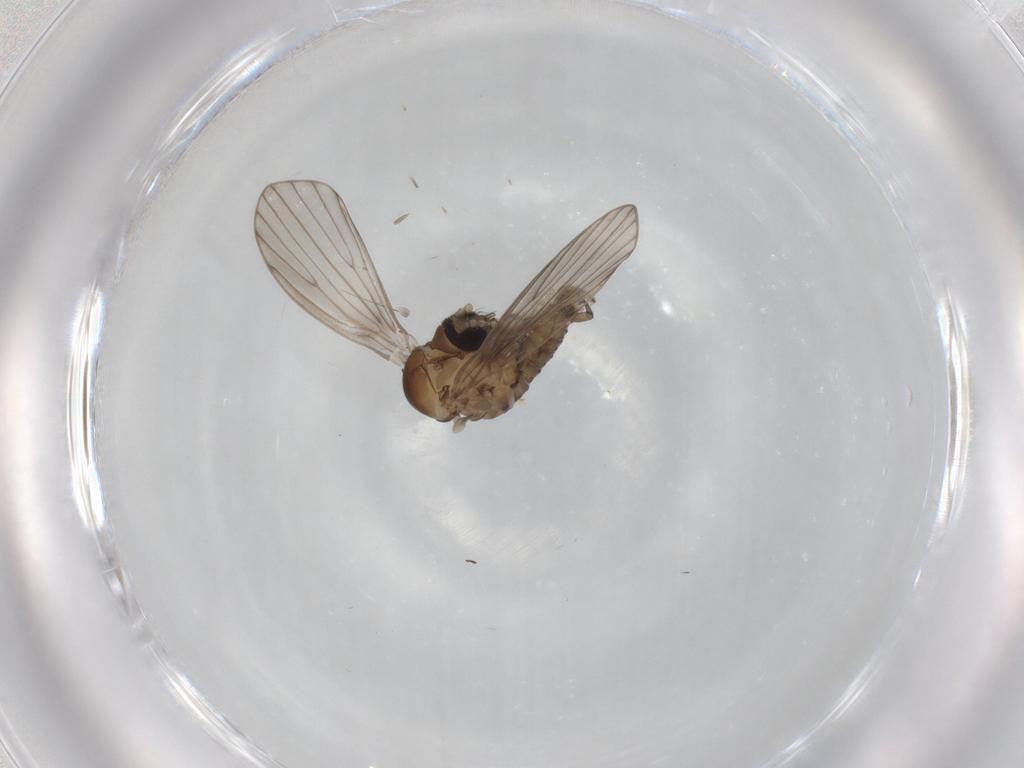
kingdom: Animalia
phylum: Arthropoda
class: Insecta
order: Diptera
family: Psychodidae
